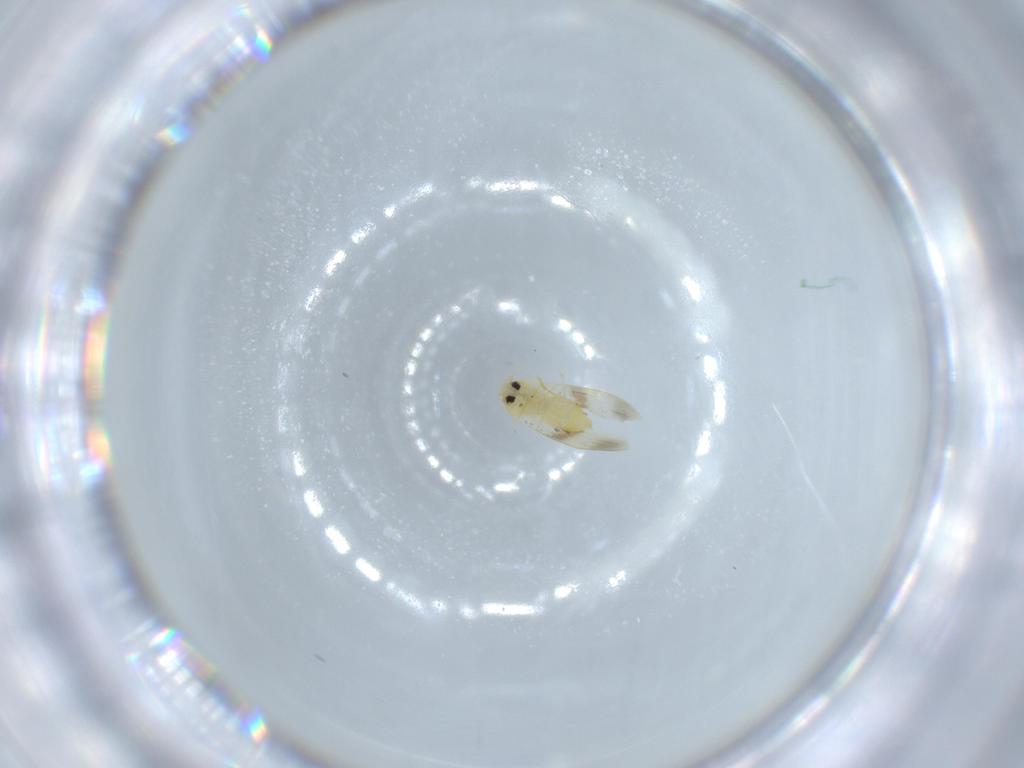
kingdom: Animalia
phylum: Arthropoda
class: Insecta
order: Hemiptera
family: Aleyrodidae
